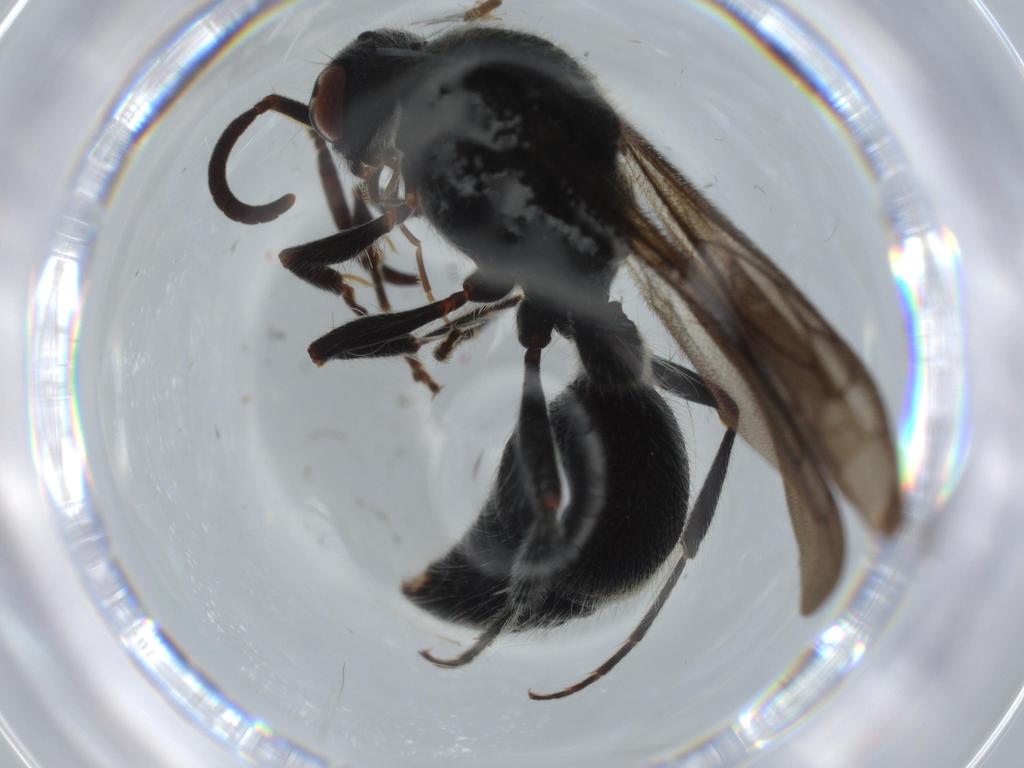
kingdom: Animalia
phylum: Arthropoda
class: Insecta
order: Hymenoptera
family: Mymaridae
